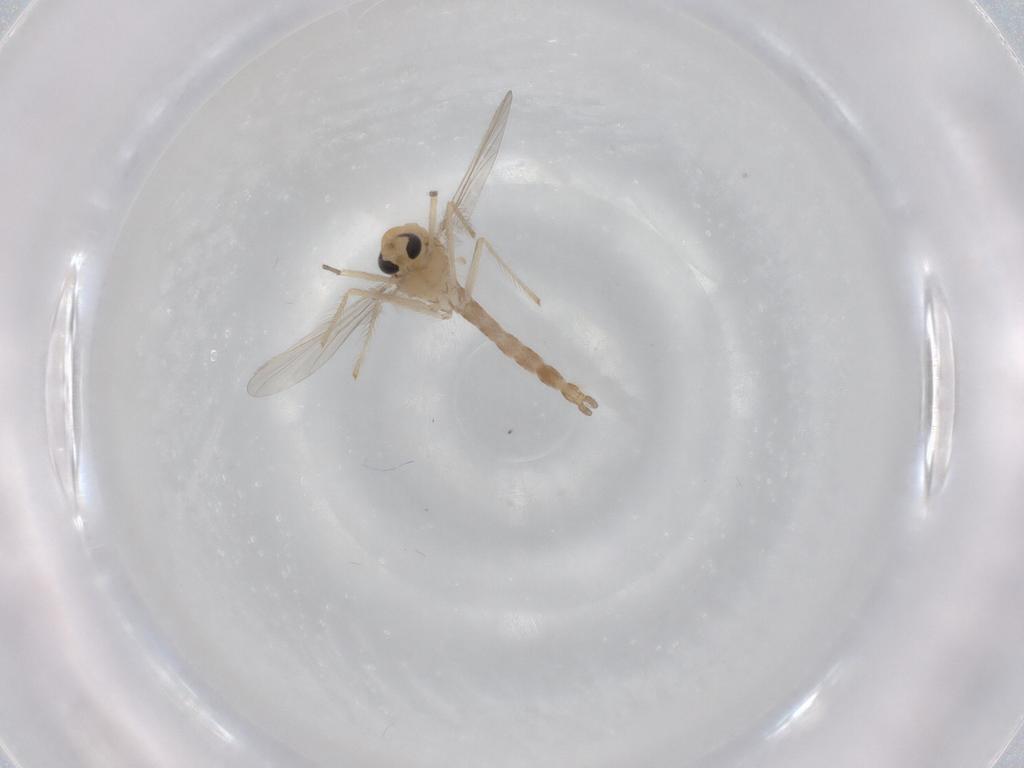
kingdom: Animalia
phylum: Arthropoda
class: Insecta
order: Diptera
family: Chironomidae
